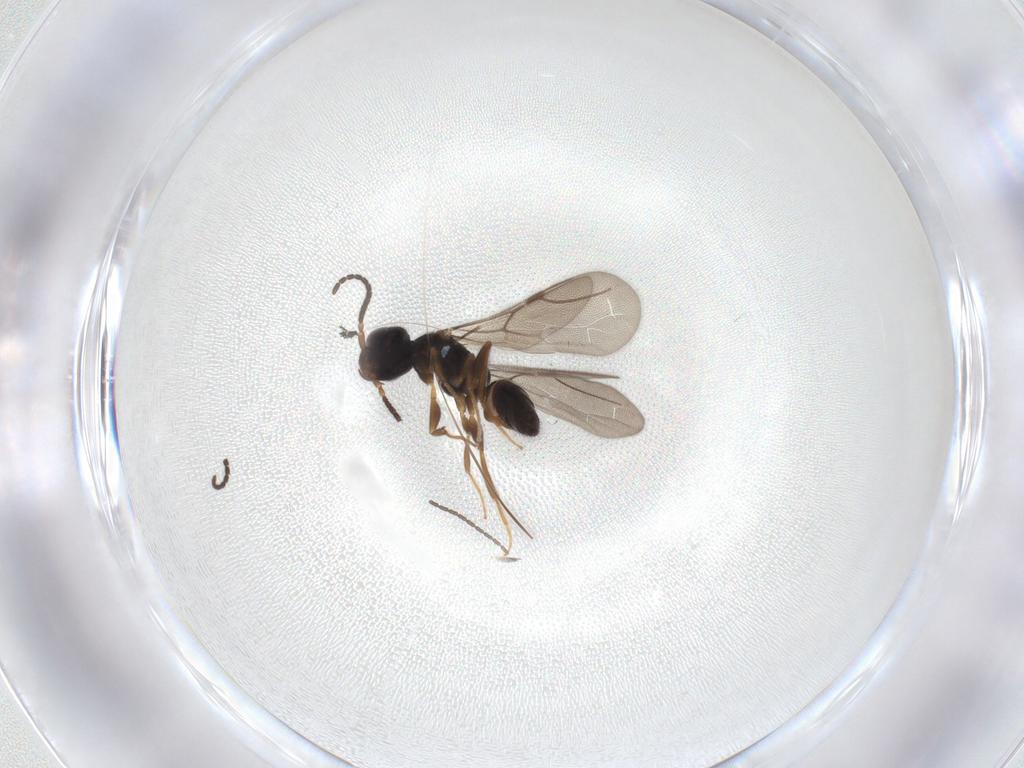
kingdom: Animalia
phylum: Arthropoda
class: Insecta
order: Hymenoptera
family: Bethylidae
